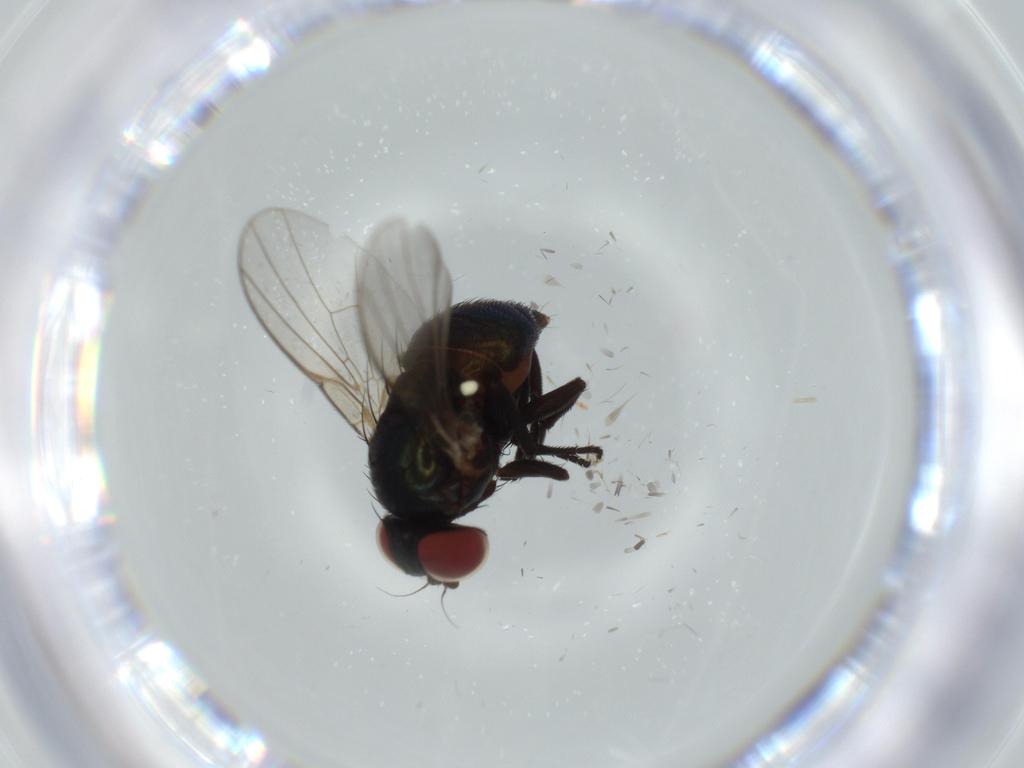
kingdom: Animalia
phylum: Arthropoda
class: Insecta
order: Diptera
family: Agromyzidae
